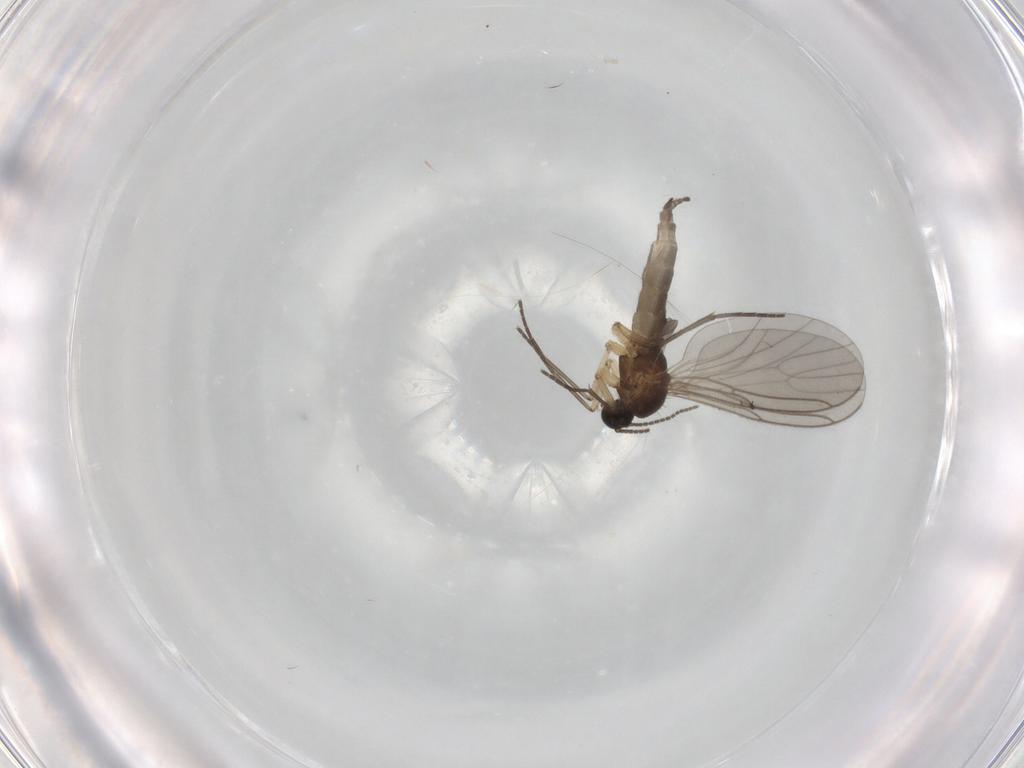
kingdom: Animalia
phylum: Arthropoda
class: Insecta
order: Diptera
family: Sciaridae
